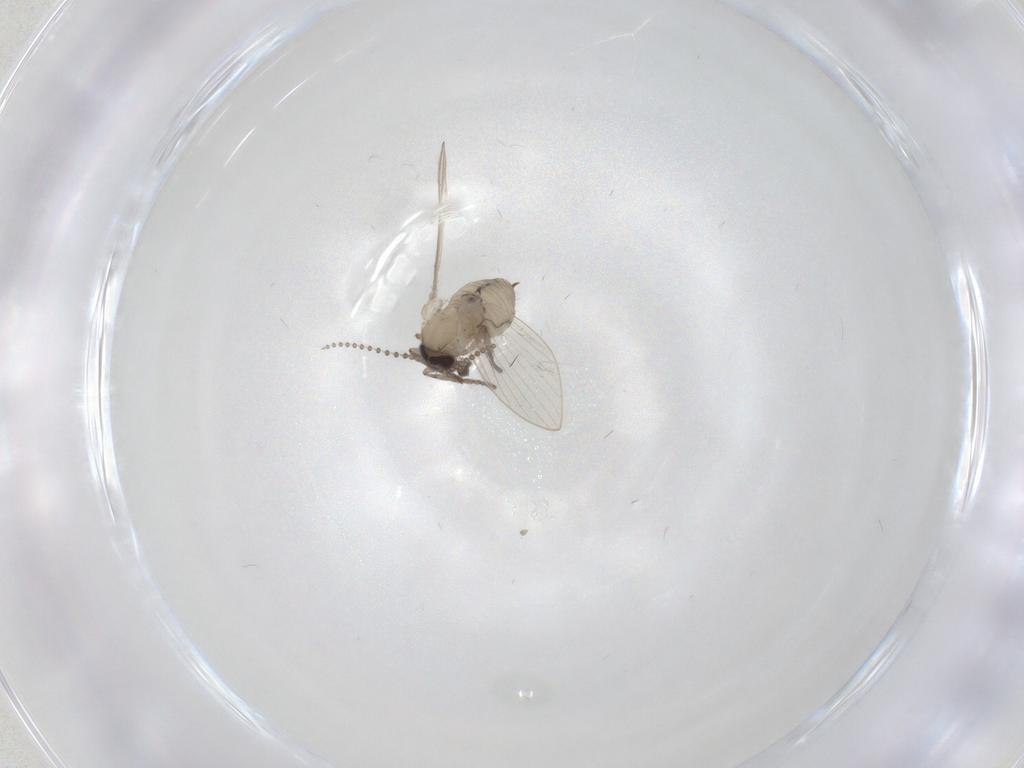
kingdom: Animalia
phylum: Arthropoda
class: Insecta
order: Diptera
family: Psychodidae
